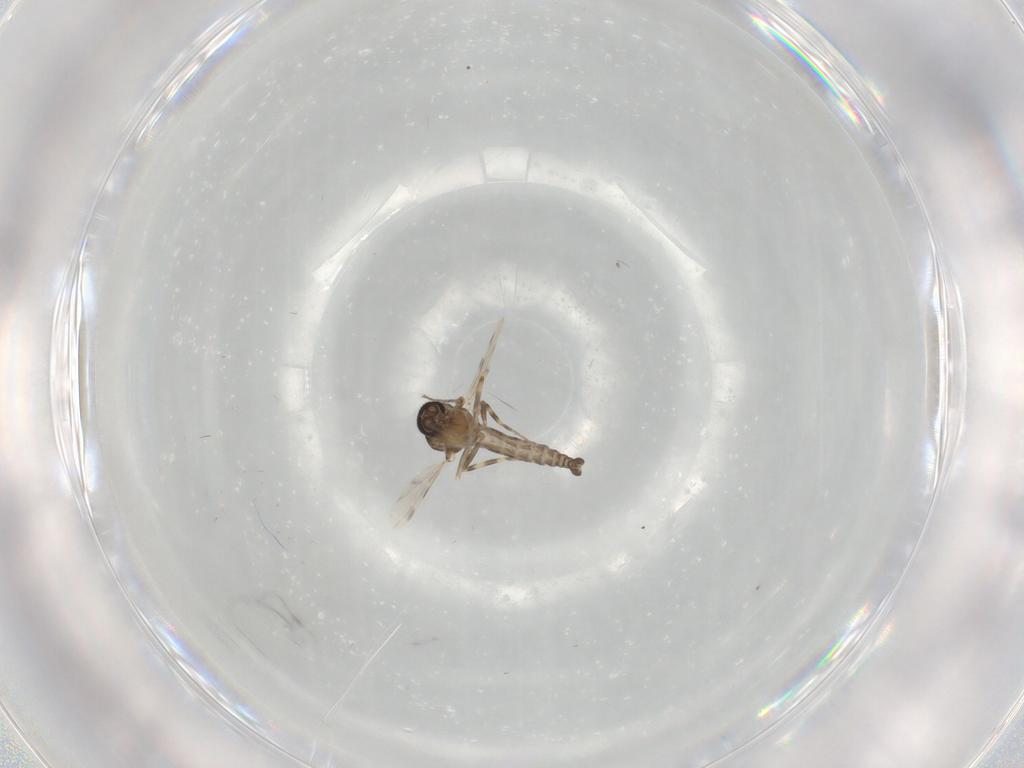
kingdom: Animalia
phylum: Arthropoda
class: Insecta
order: Diptera
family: Ceratopogonidae
